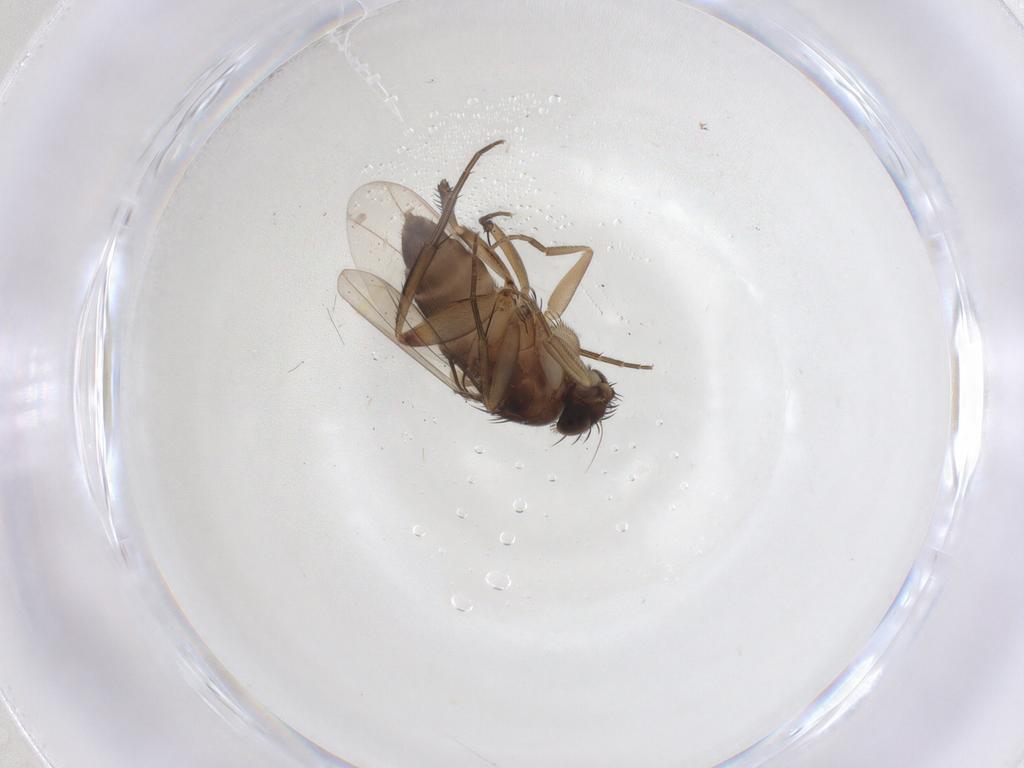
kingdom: Animalia
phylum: Arthropoda
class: Insecta
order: Diptera
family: Phoridae
